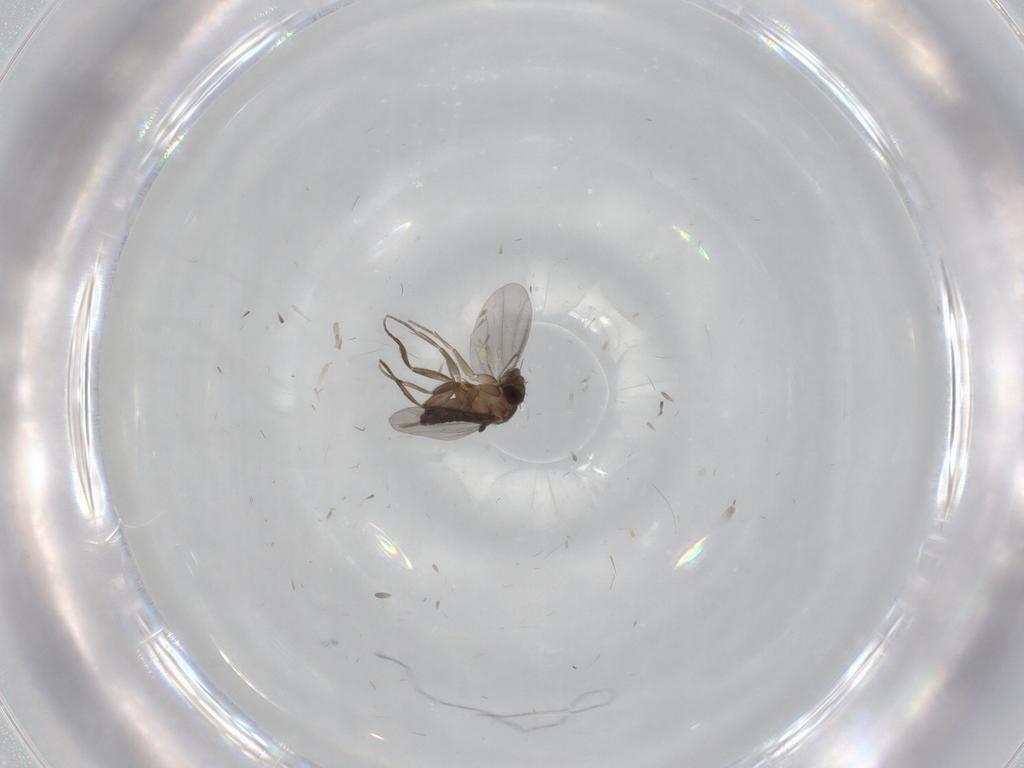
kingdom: Animalia
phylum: Arthropoda
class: Insecta
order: Diptera
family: Phoridae
